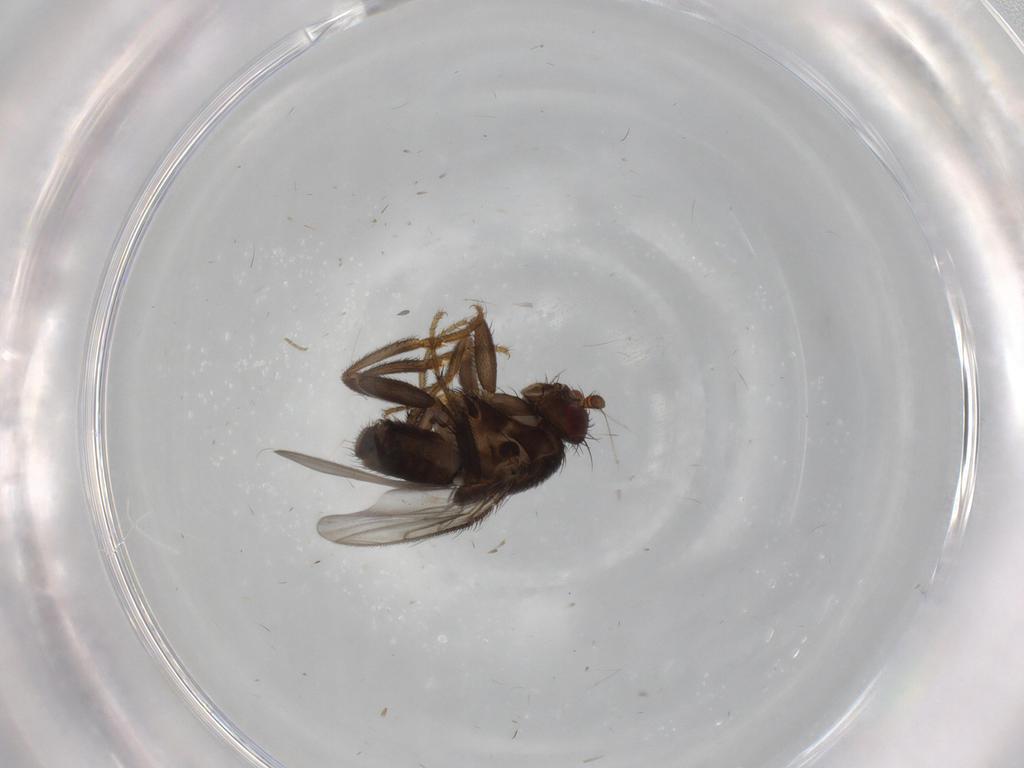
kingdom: Animalia
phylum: Arthropoda
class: Insecta
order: Diptera
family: Sphaeroceridae
